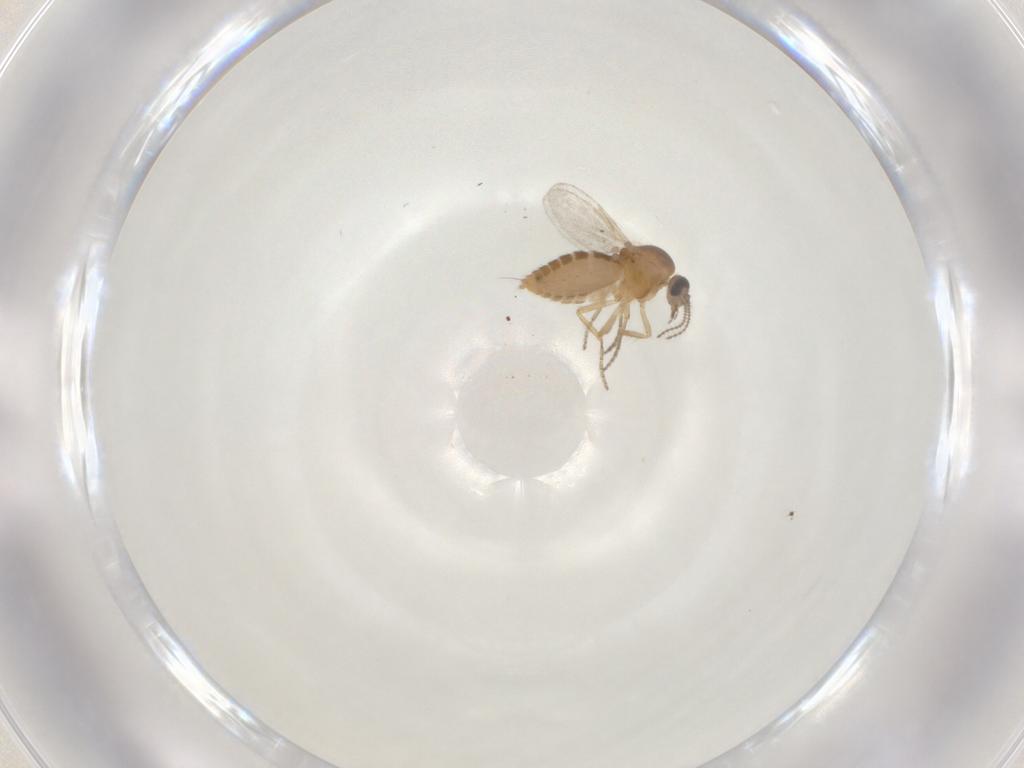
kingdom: Animalia
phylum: Arthropoda
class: Insecta
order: Diptera
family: Ceratopogonidae
